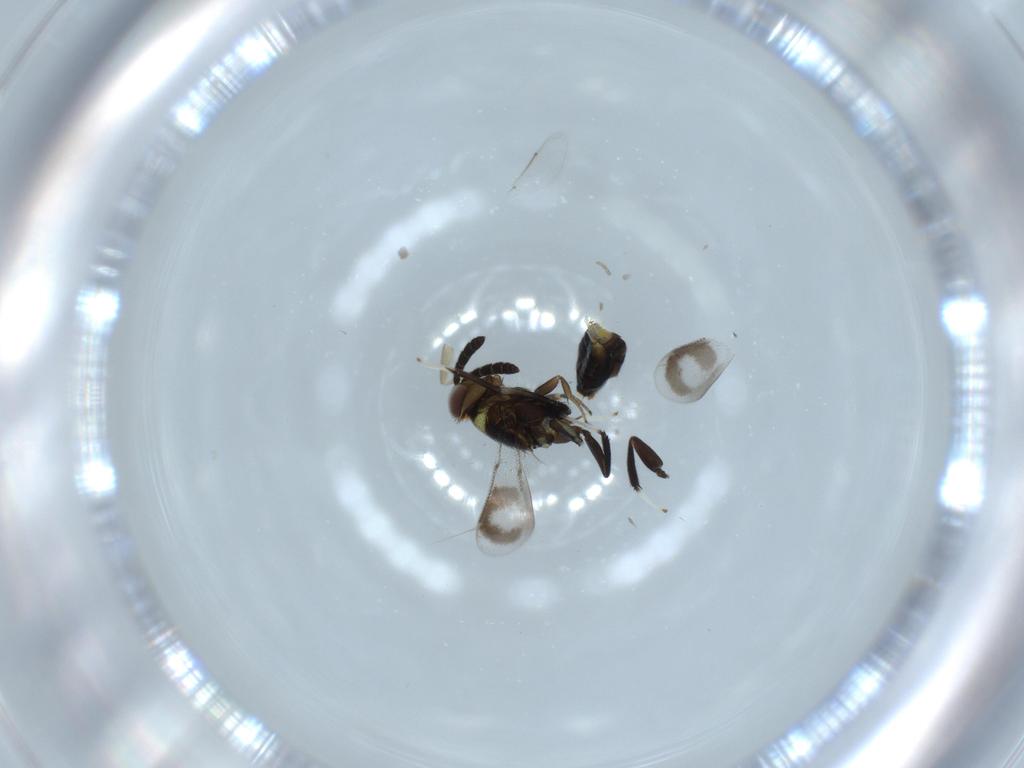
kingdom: Animalia
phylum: Arthropoda
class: Insecta
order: Hymenoptera
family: Aphelinidae
